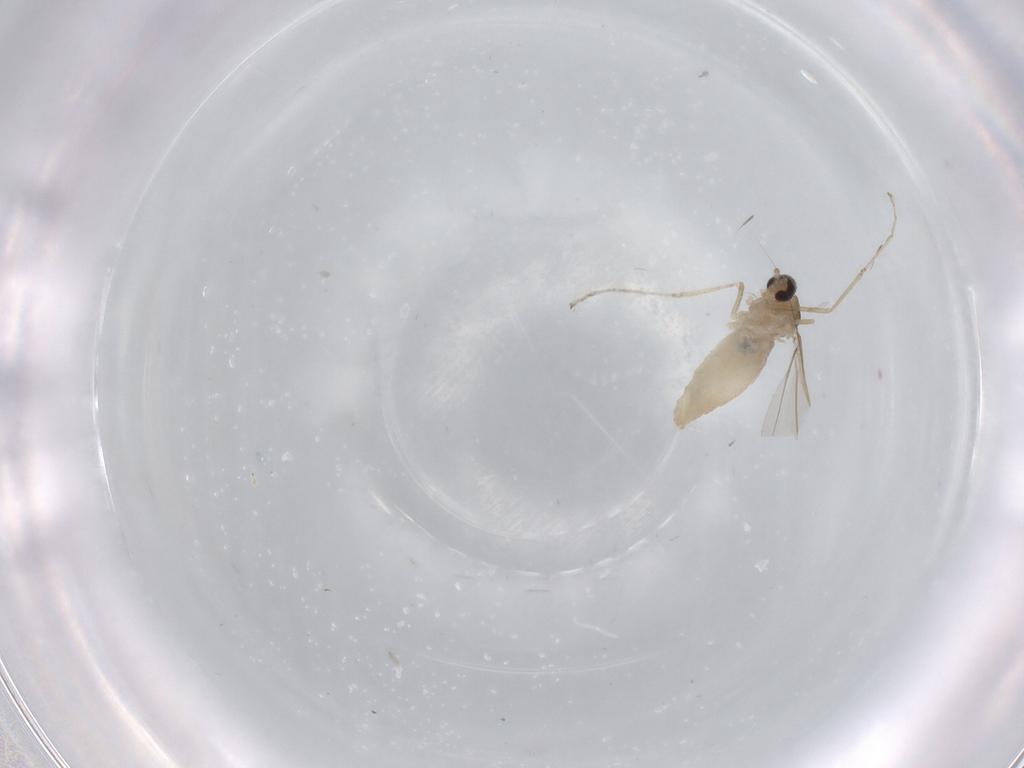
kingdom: Animalia
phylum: Arthropoda
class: Insecta
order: Diptera
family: Cecidomyiidae
